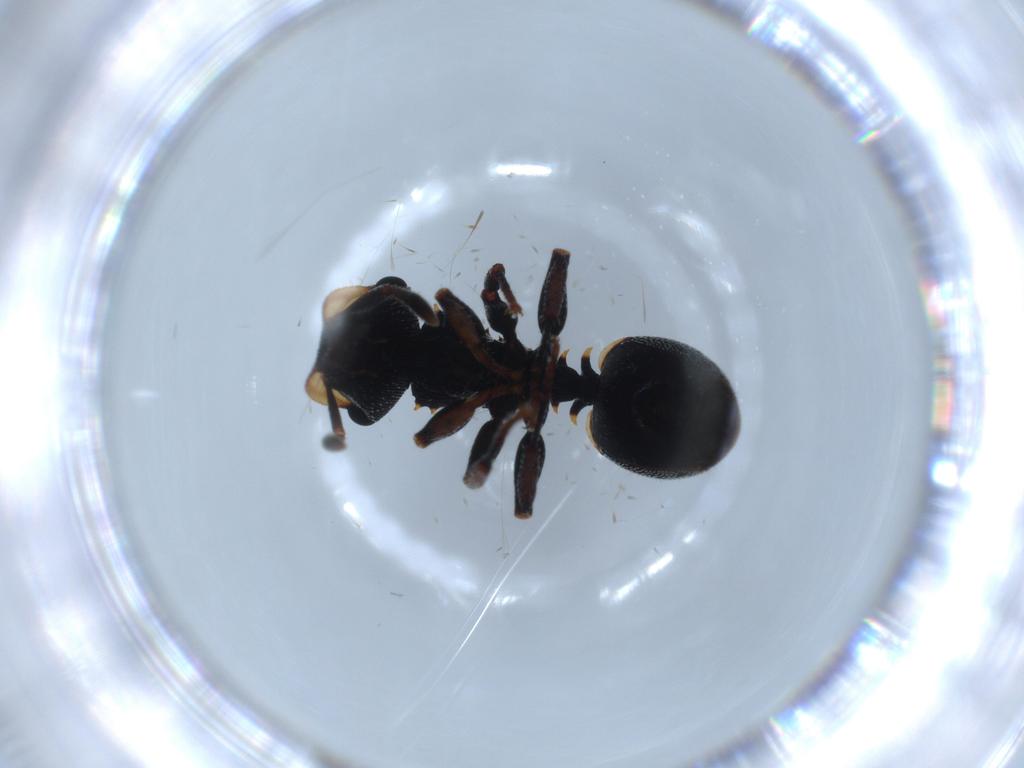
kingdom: Animalia
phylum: Arthropoda
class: Insecta
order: Hymenoptera
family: Formicidae
